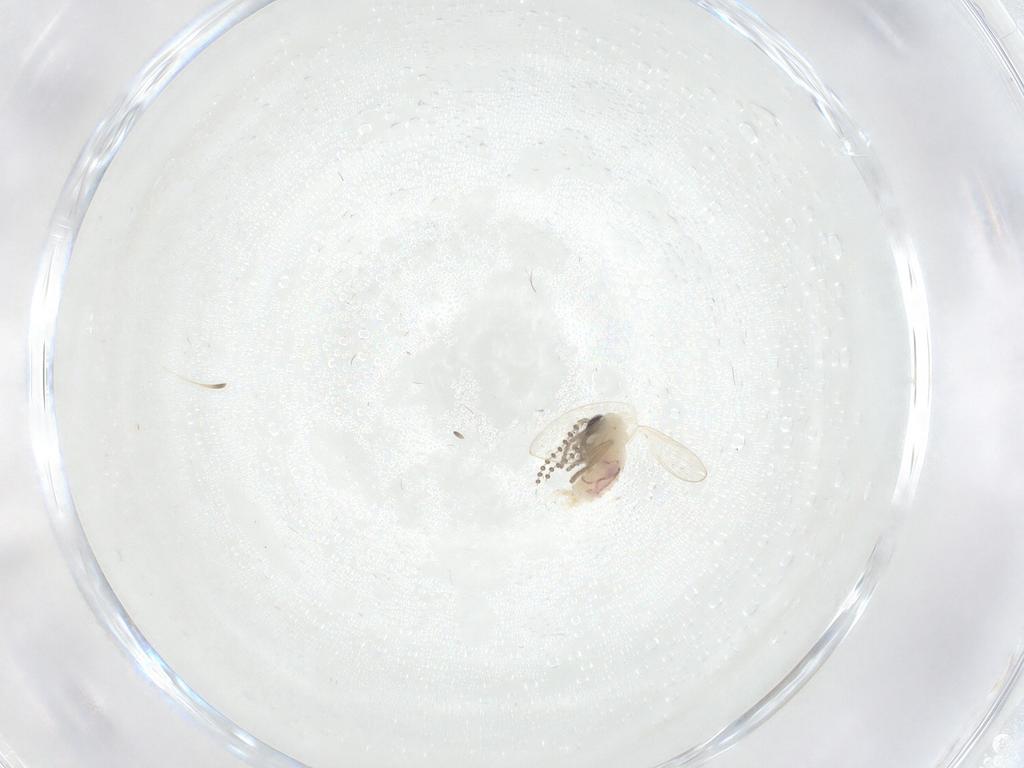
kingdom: Animalia
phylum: Arthropoda
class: Insecta
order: Diptera
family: Psychodidae
